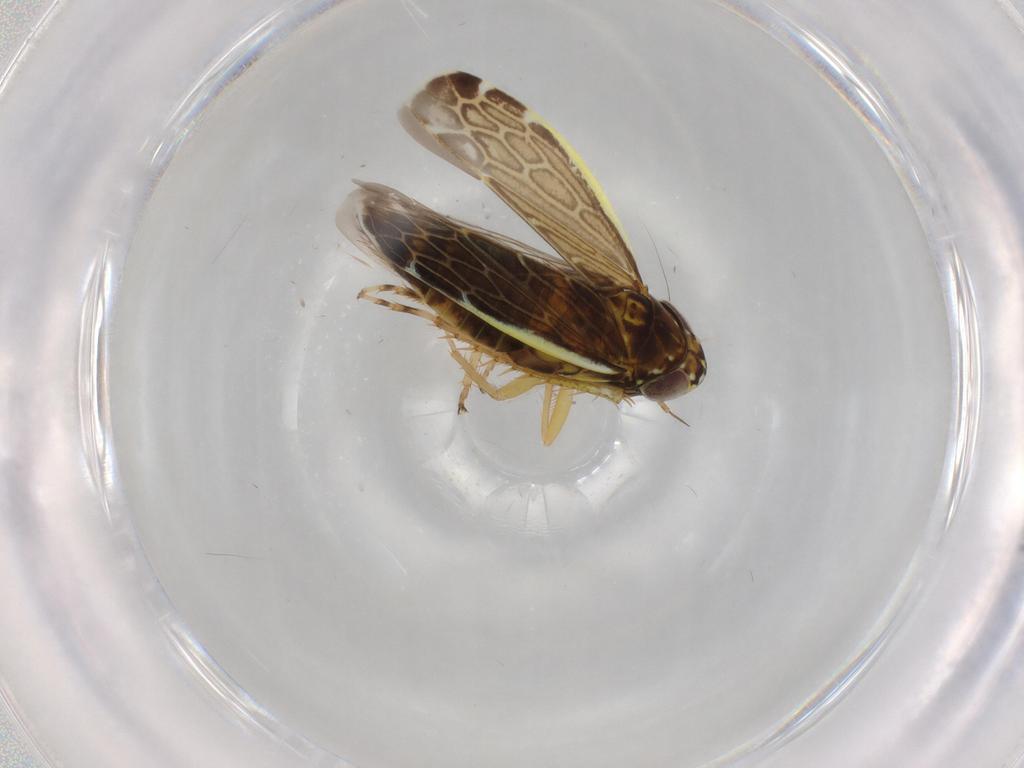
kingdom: Animalia
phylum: Arthropoda
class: Insecta
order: Hemiptera
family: Cicadellidae
